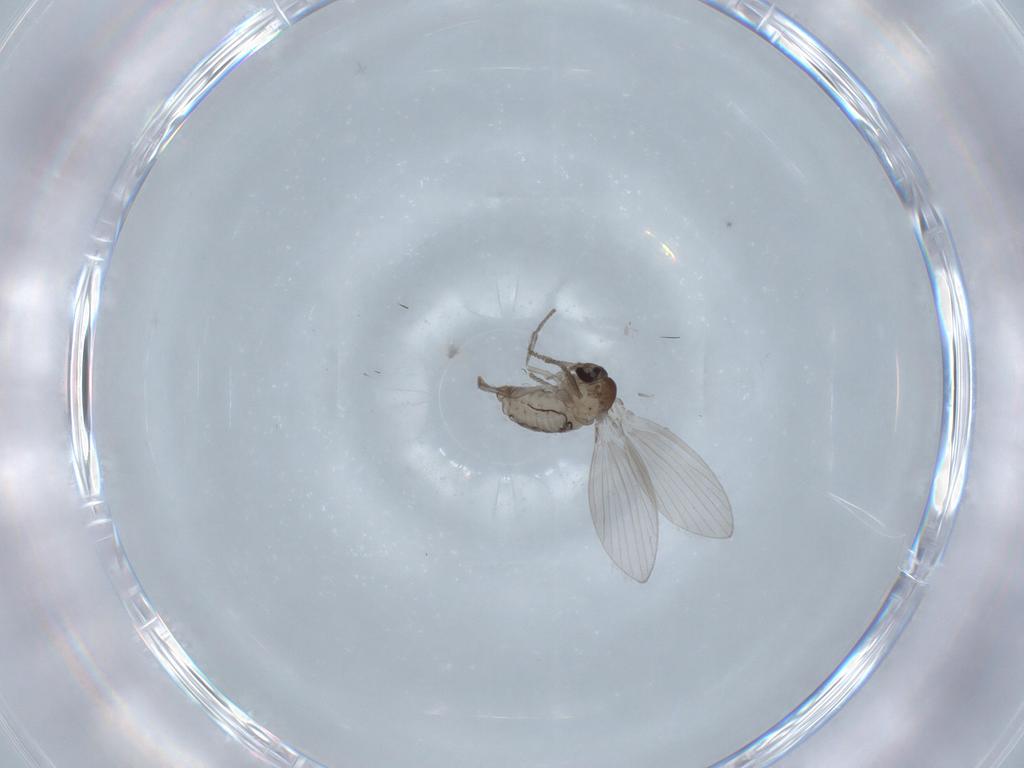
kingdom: Animalia
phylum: Arthropoda
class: Insecta
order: Diptera
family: Psychodidae
